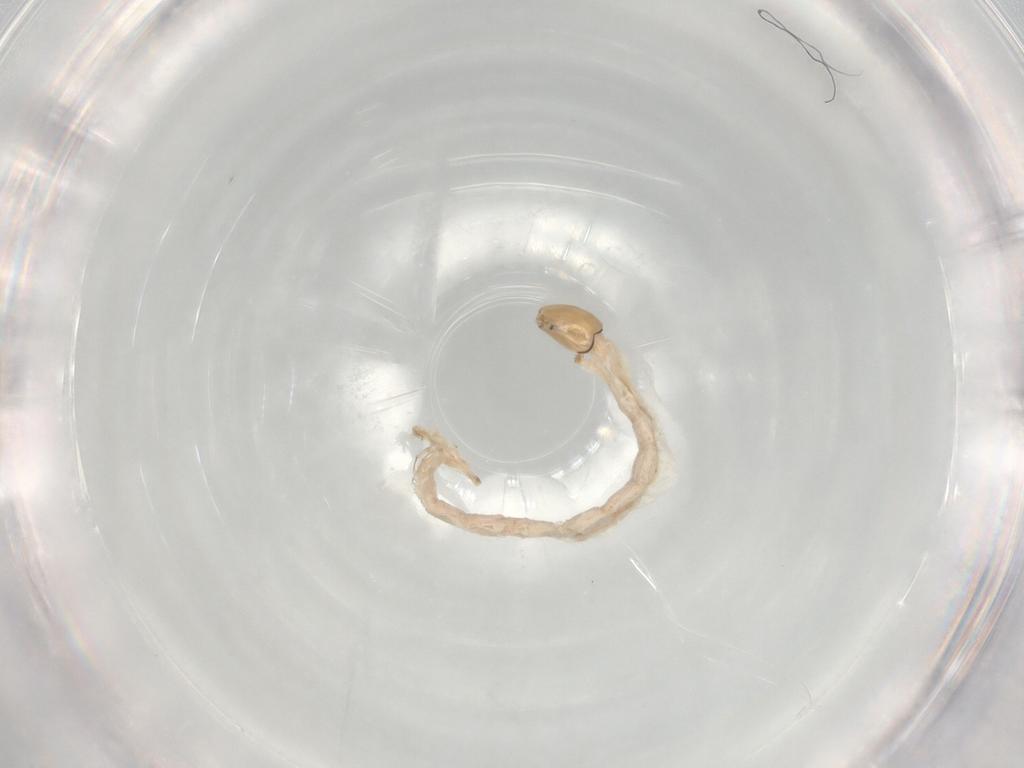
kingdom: Animalia
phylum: Arthropoda
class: Insecta
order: Diptera
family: Chironomidae
